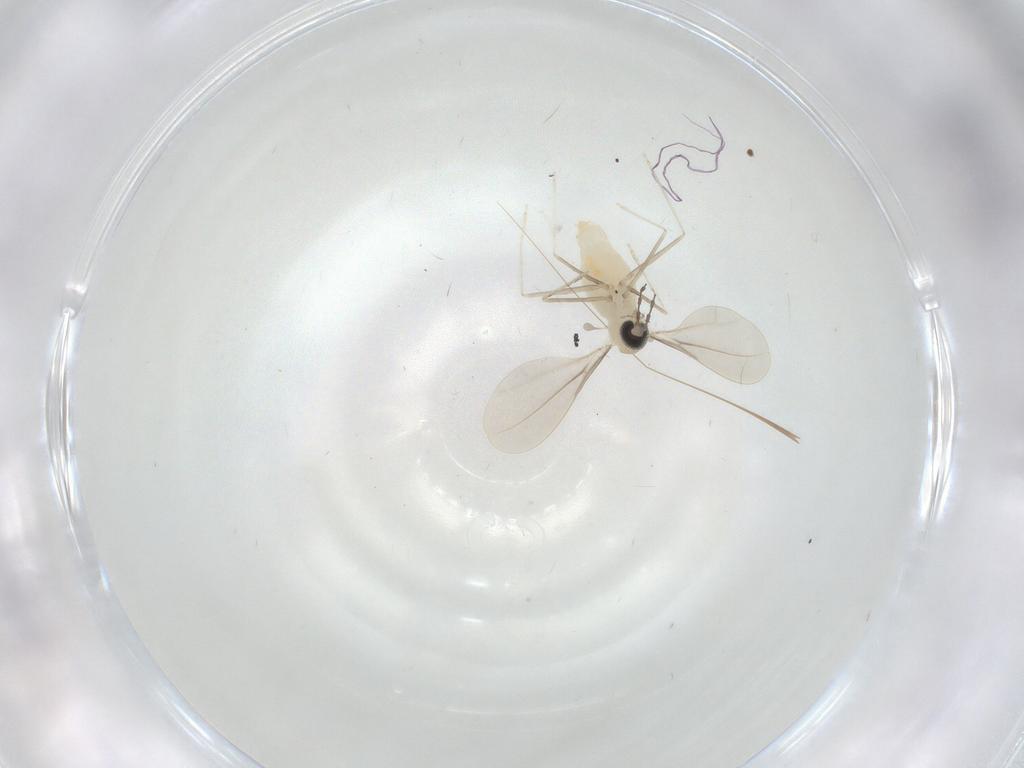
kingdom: Animalia
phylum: Arthropoda
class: Insecta
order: Diptera
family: Cecidomyiidae
